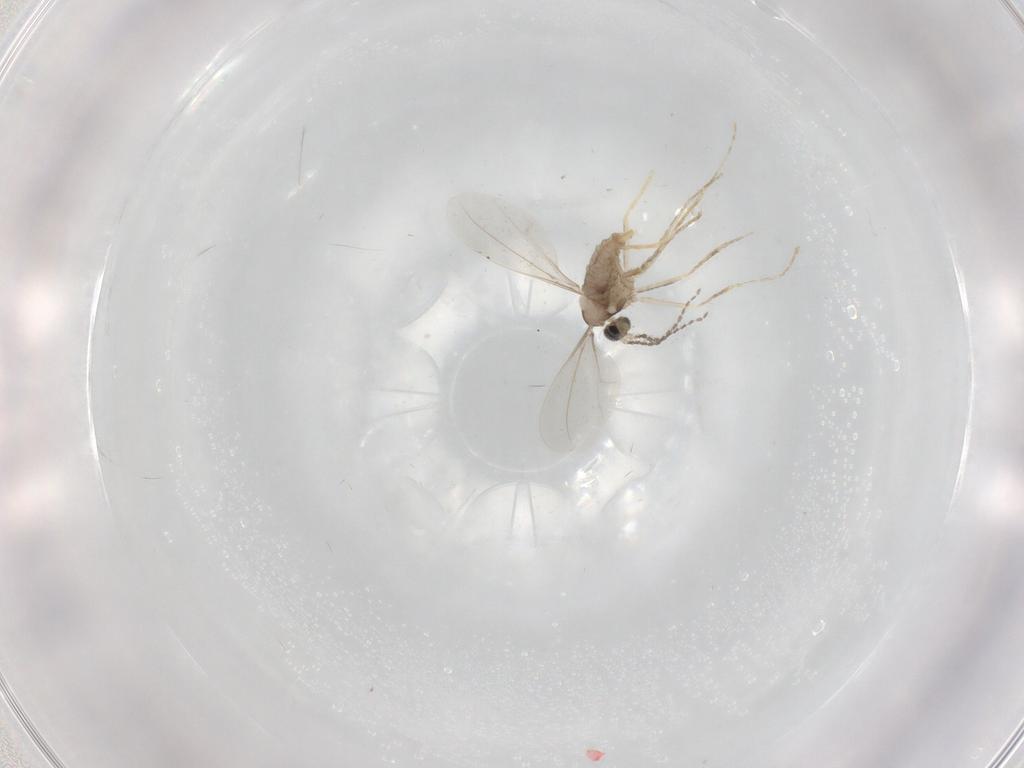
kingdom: Animalia
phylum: Arthropoda
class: Insecta
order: Diptera
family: Cecidomyiidae
